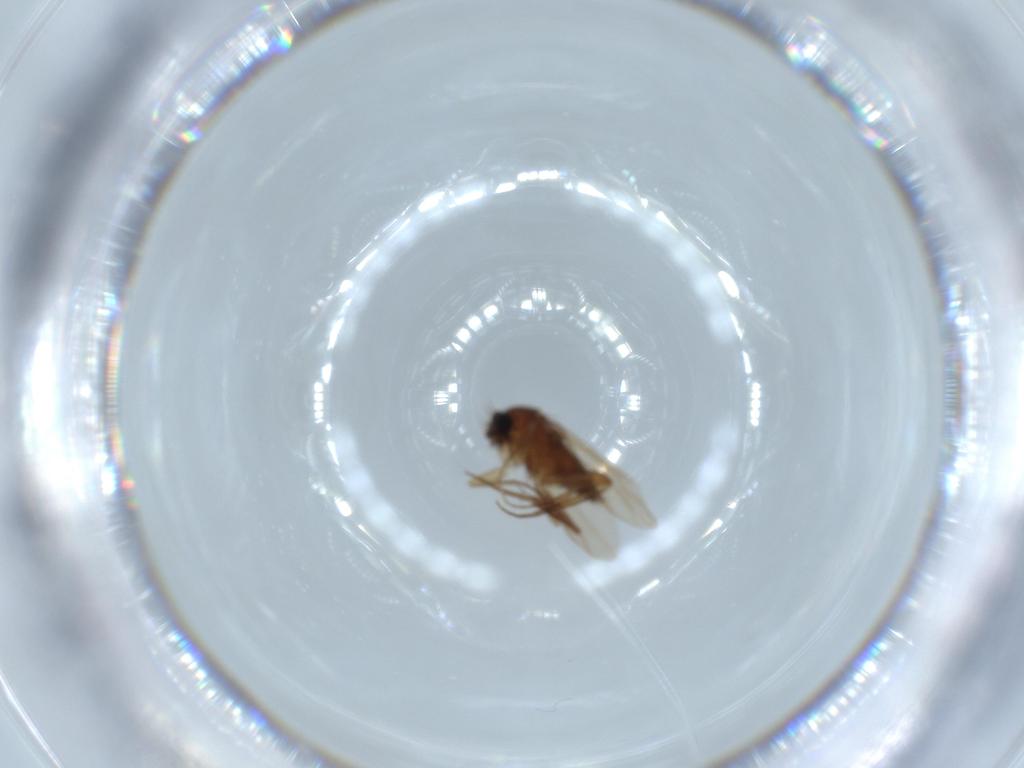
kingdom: Animalia
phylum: Arthropoda
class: Insecta
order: Diptera
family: Phoridae
